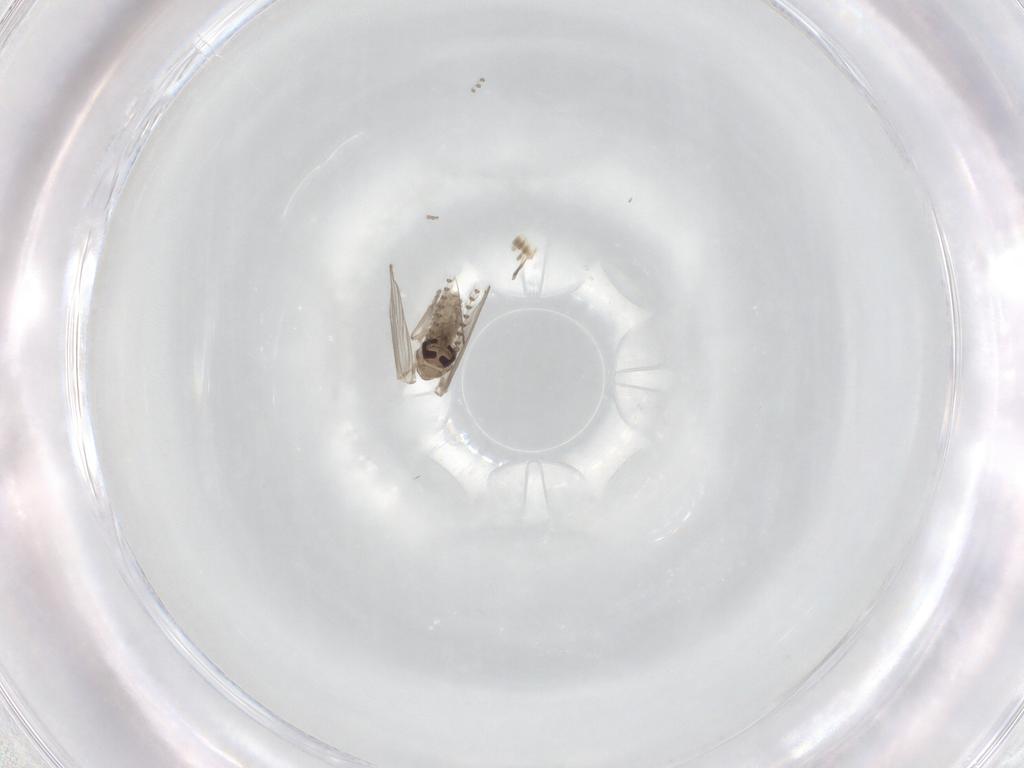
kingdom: Animalia
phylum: Arthropoda
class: Insecta
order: Diptera
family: Psychodidae
